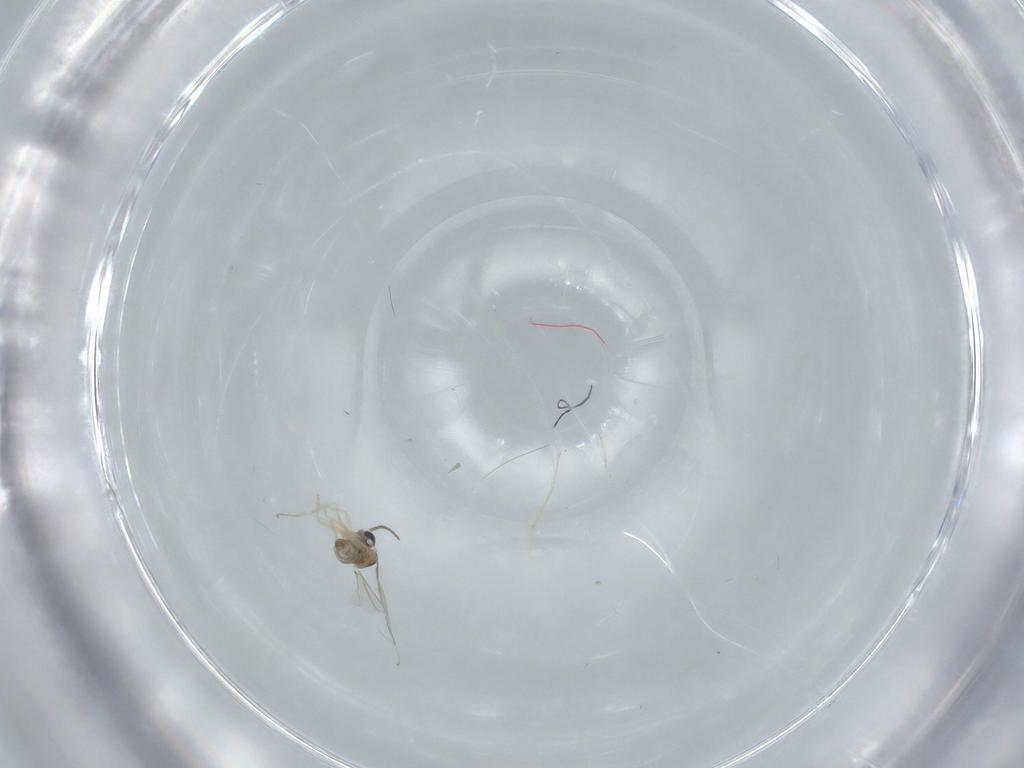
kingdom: Animalia
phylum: Arthropoda
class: Insecta
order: Diptera
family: Cecidomyiidae
